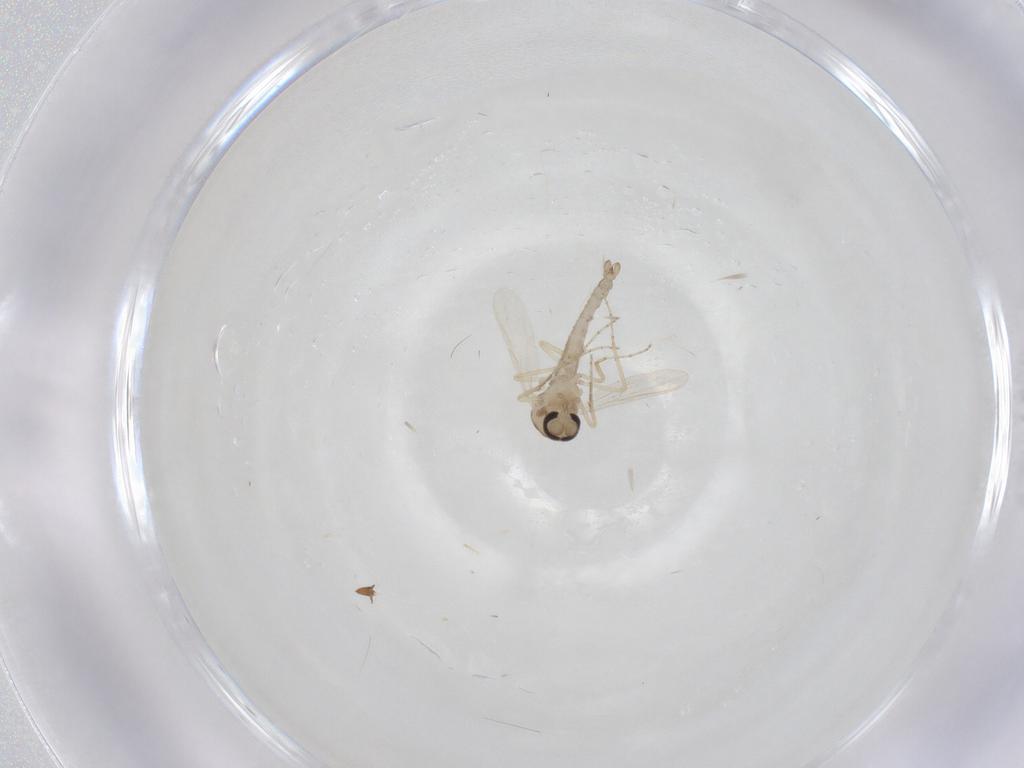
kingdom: Animalia
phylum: Arthropoda
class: Insecta
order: Diptera
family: Ceratopogonidae
